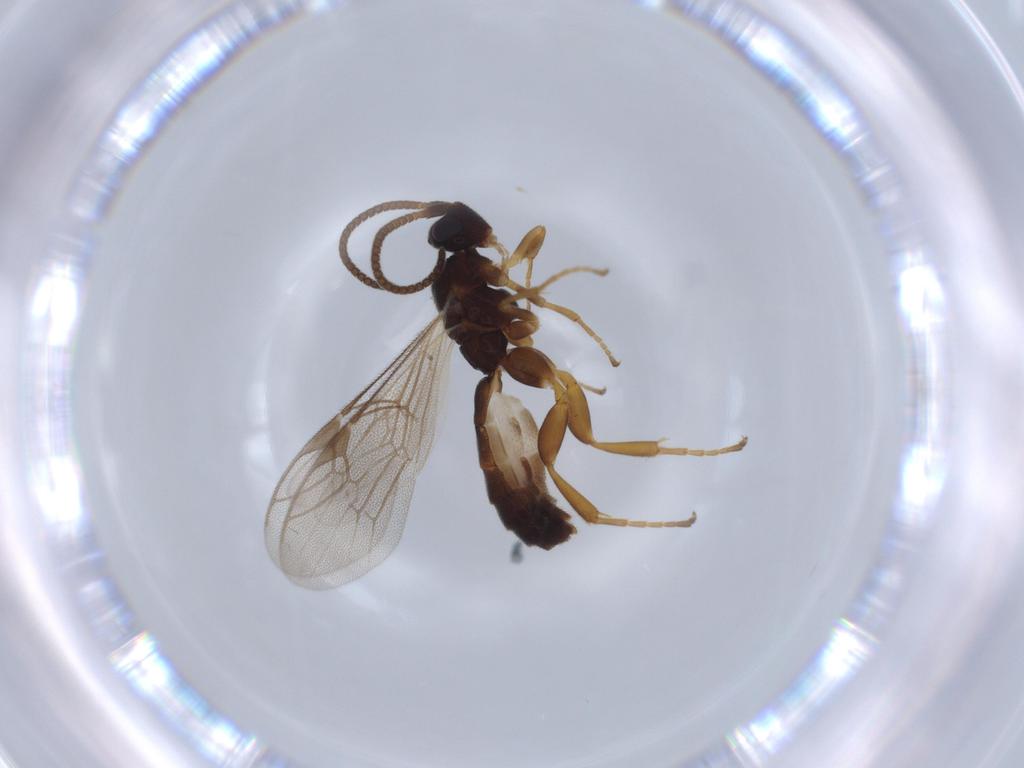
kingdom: Animalia
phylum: Arthropoda
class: Insecta
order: Hymenoptera
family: Ichneumonidae
